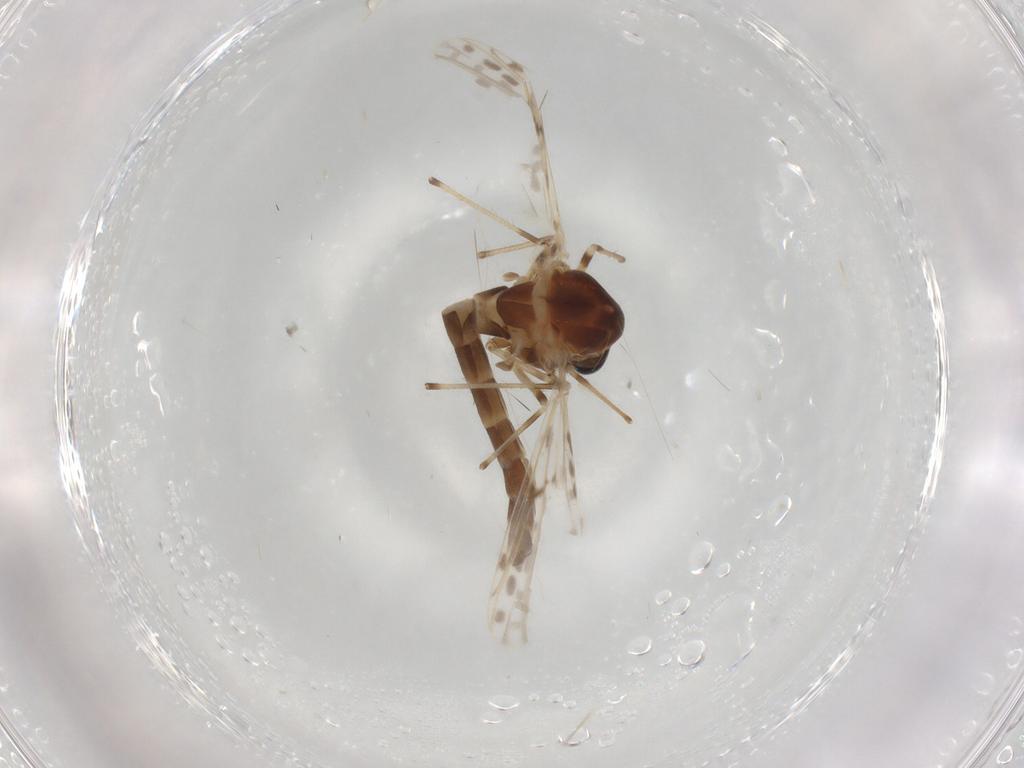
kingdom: Animalia
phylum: Arthropoda
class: Insecta
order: Diptera
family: Chironomidae
